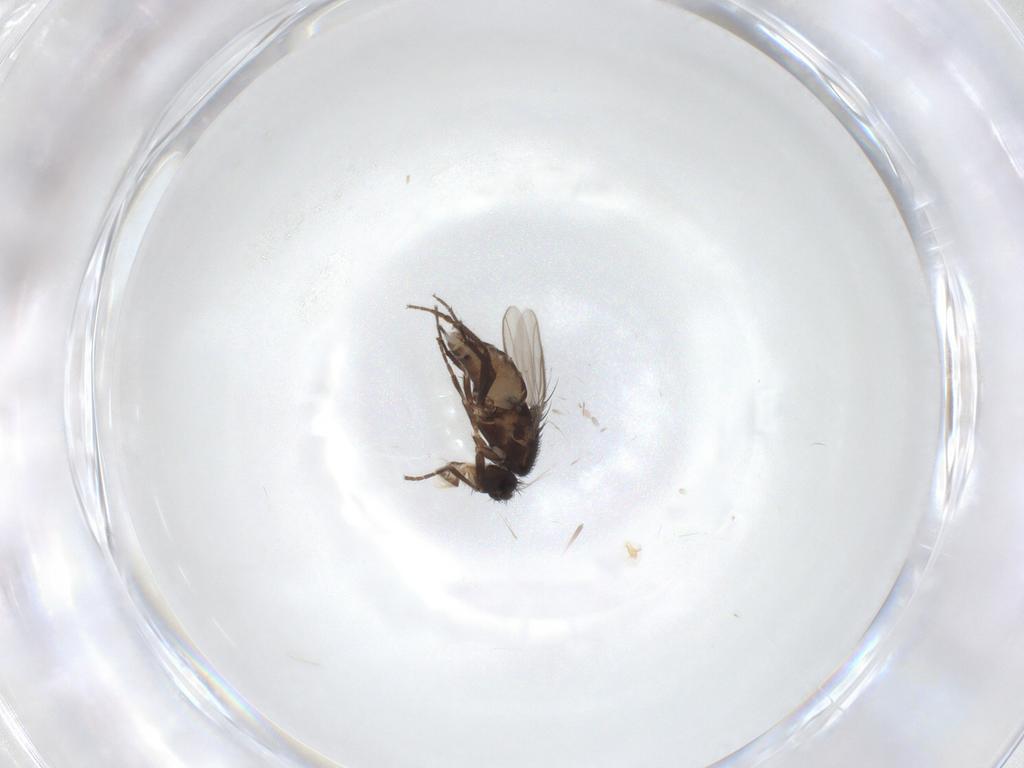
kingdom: Animalia
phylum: Arthropoda
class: Insecta
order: Diptera
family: Sphaeroceridae
